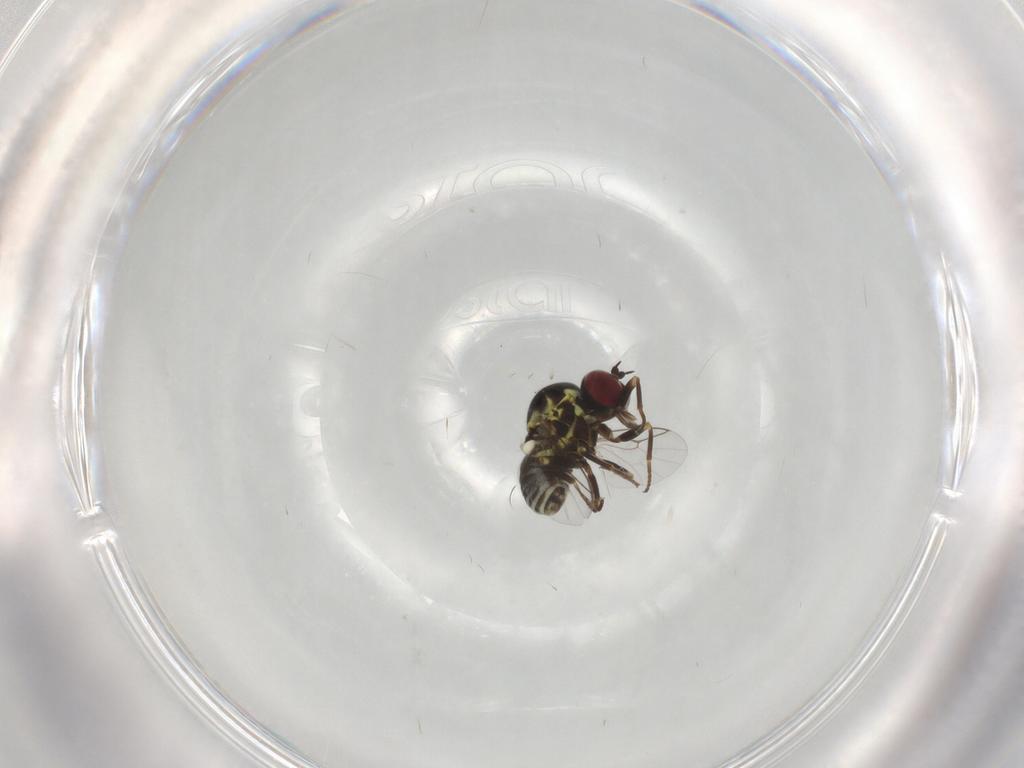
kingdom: Animalia
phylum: Arthropoda
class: Insecta
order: Diptera
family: Mythicomyiidae
